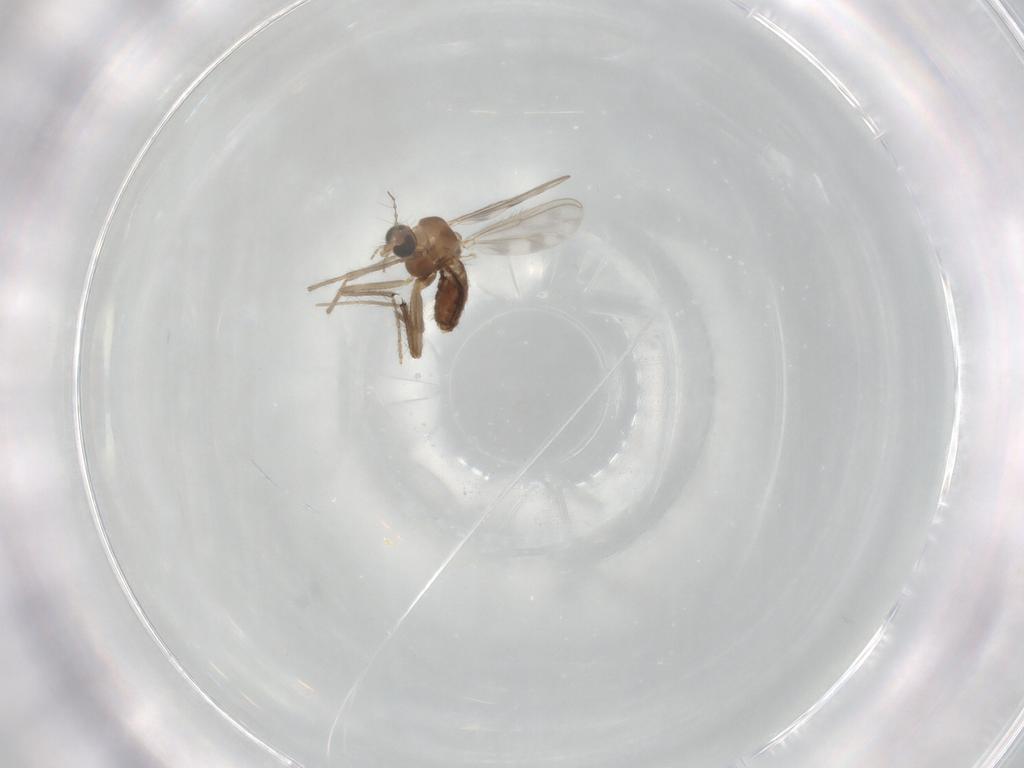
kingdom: Animalia
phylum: Arthropoda
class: Insecta
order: Diptera
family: Chironomidae
